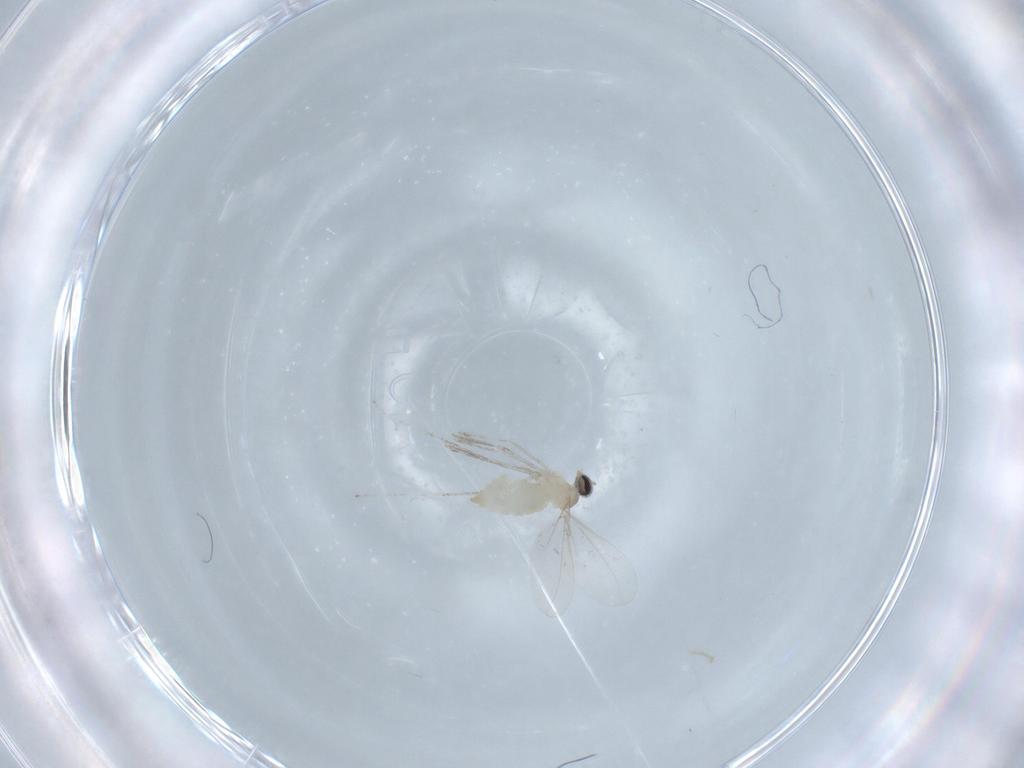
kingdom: Animalia
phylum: Arthropoda
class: Insecta
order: Diptera
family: Cecidomyiidae
